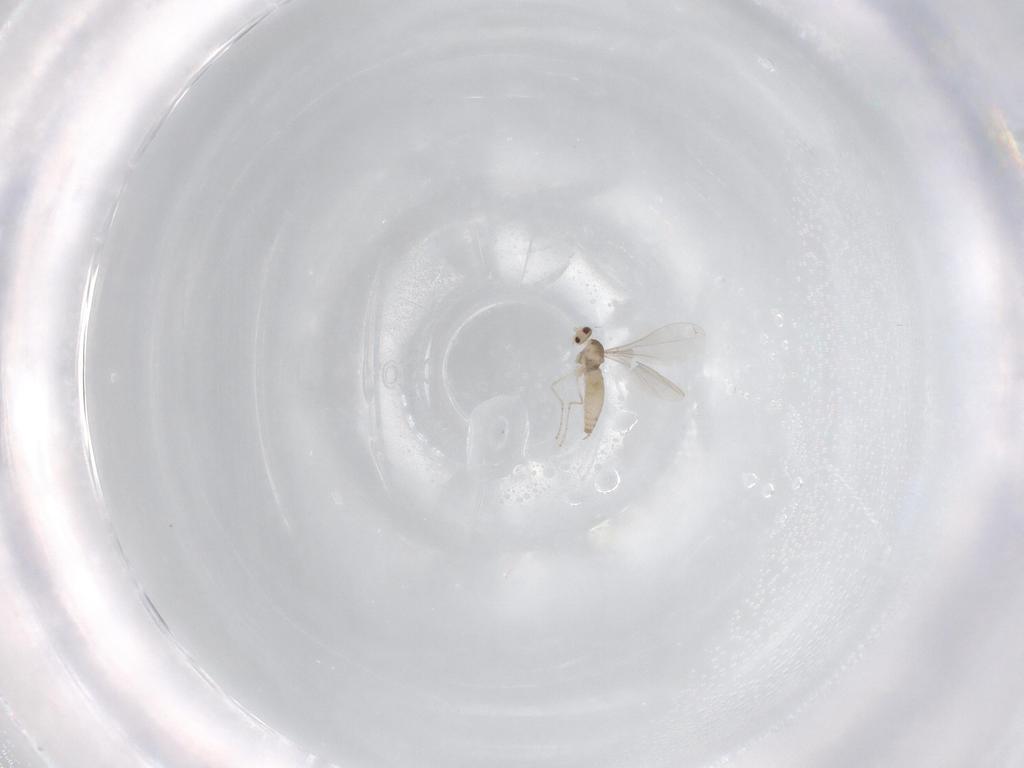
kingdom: Animalia
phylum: Arthropoda
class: Insecta
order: Diptera
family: Cecidomyiidae
